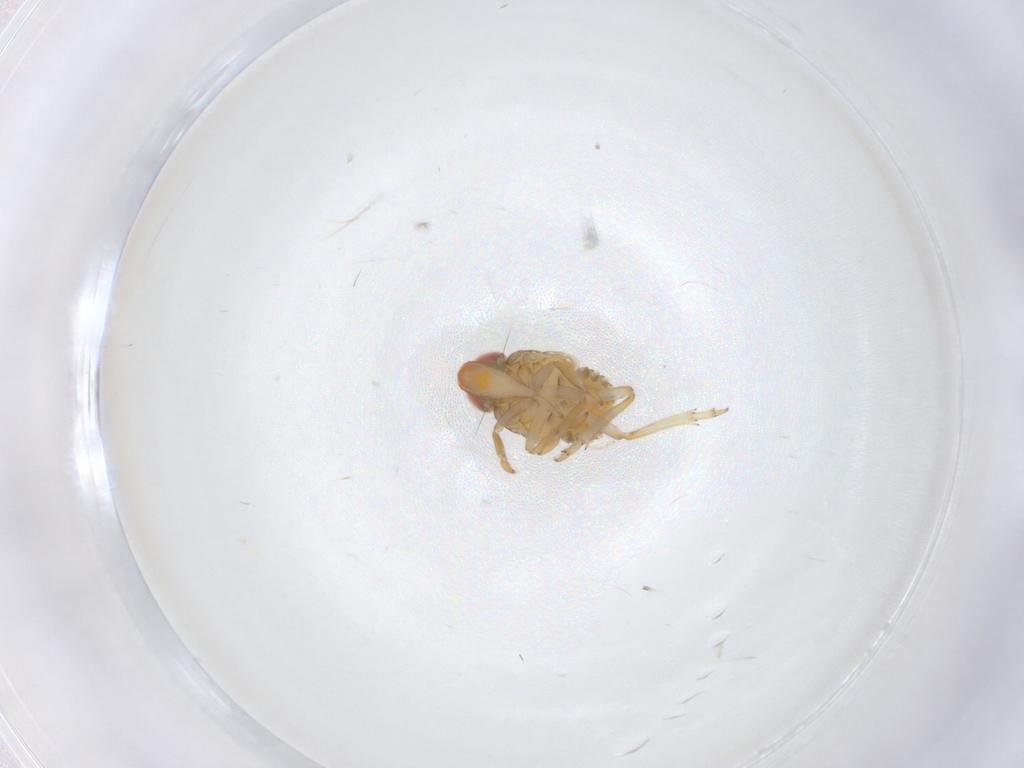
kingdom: Animalia
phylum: Arthropoda
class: Insecta
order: Hemiptera
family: Fulgoroidea_incertae_sedis
